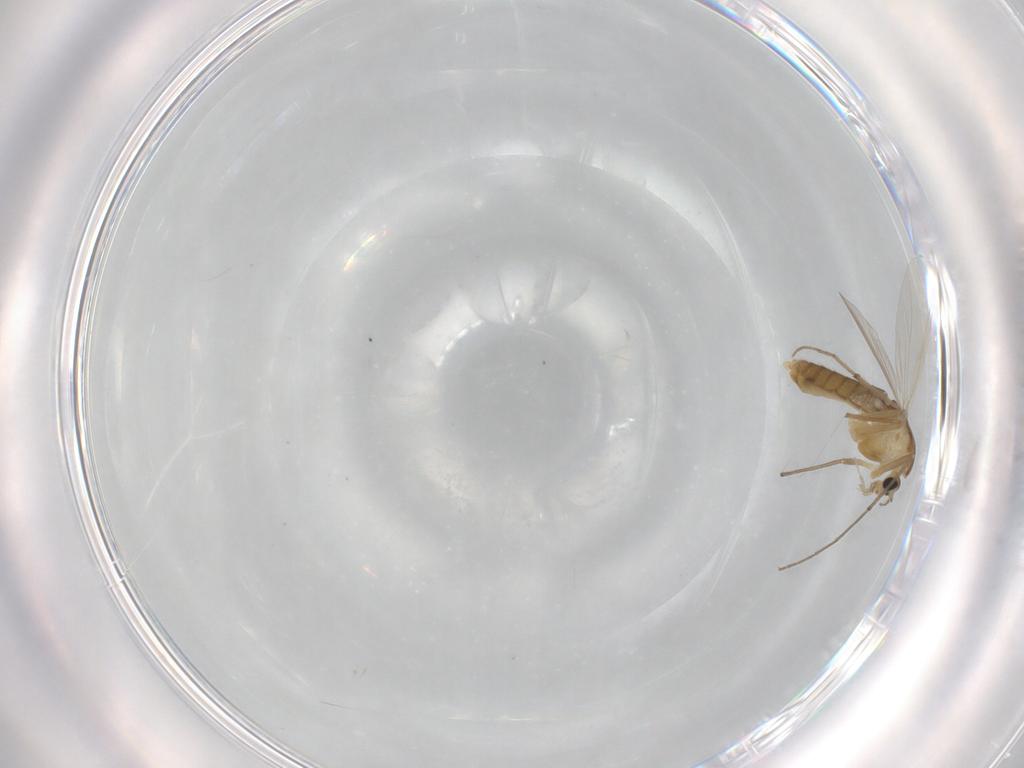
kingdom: Animalia
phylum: Arthropoda
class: Insecta
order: Diptera
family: Chironomidae
